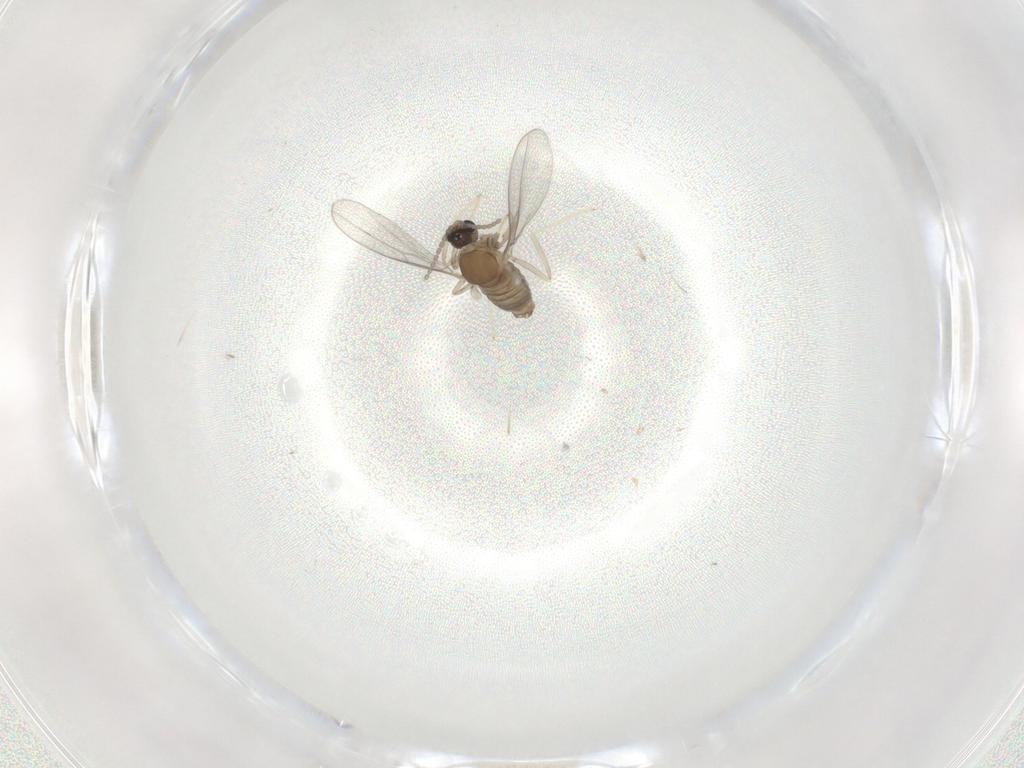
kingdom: Animalia
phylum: Arthropoda
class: Insecta
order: Diptera
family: Cecidomyiidae
